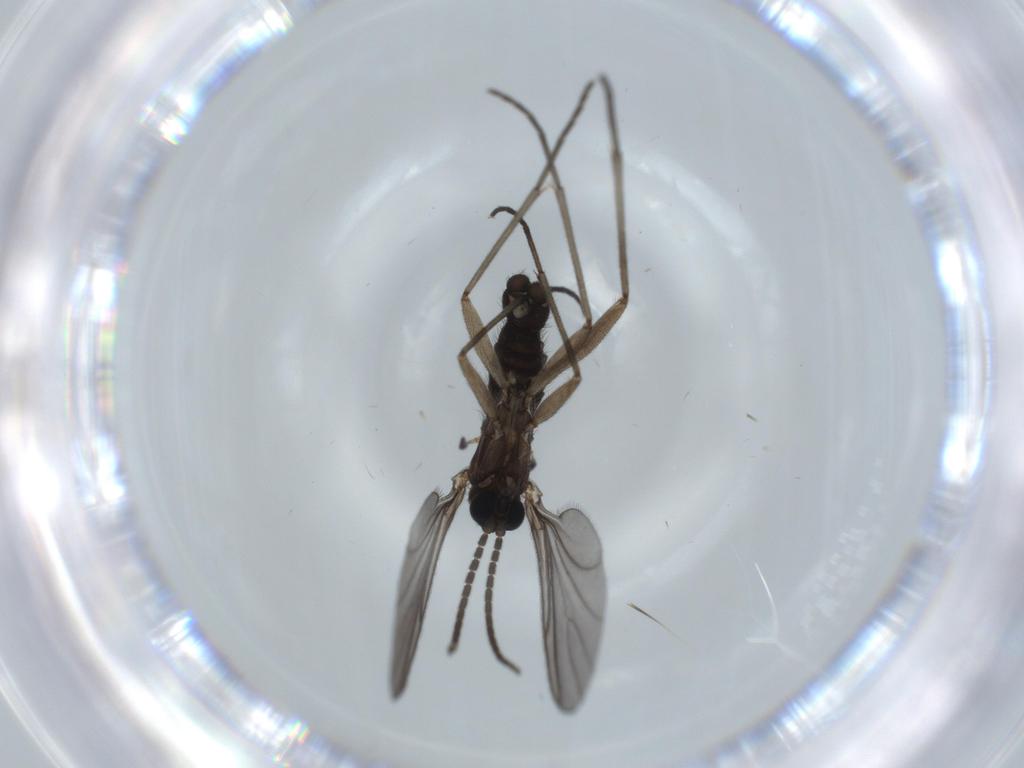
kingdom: Animalia
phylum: Arthropoda
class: Insecta
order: Diptera
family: Sciaridae
